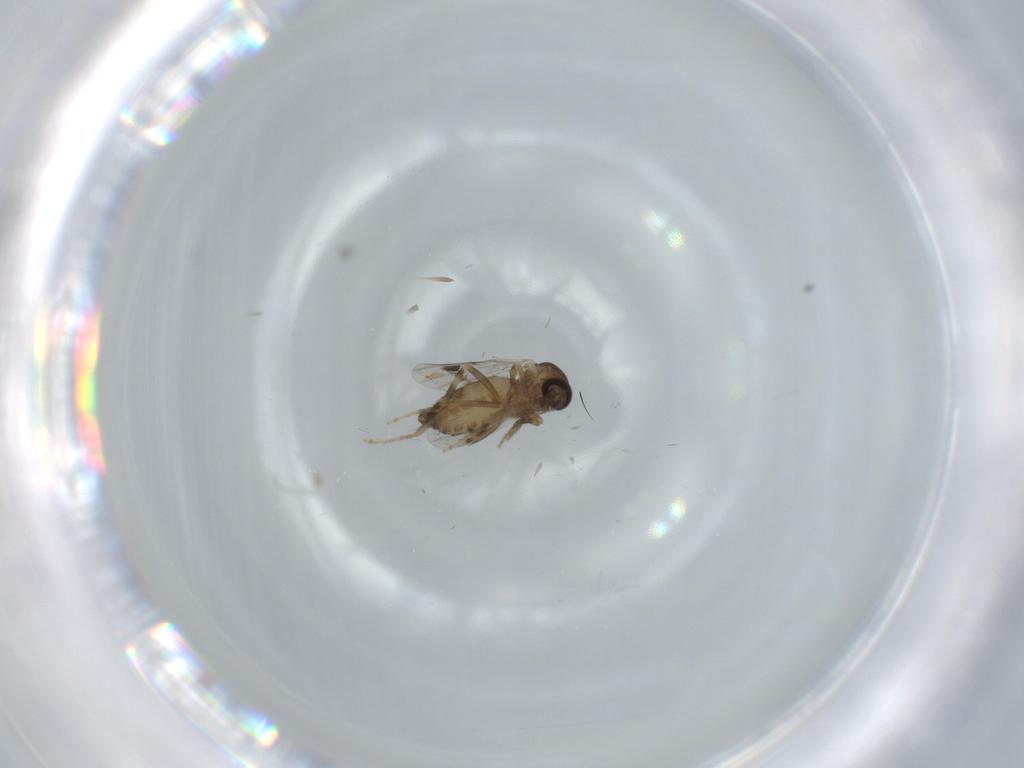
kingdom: Animalia
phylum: Arthropoda
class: Insecta
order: Diptera
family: Ceratopogonidae
